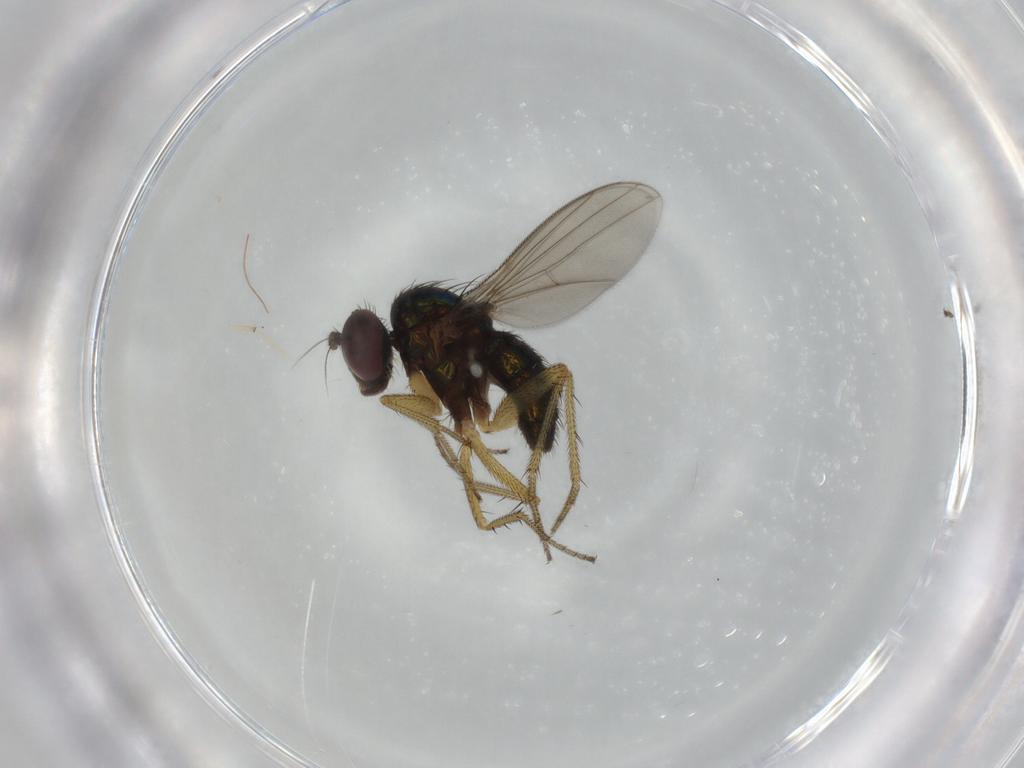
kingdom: Animalia
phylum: Arthropoda
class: Insecta
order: Diptera
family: Dolichopodidae
